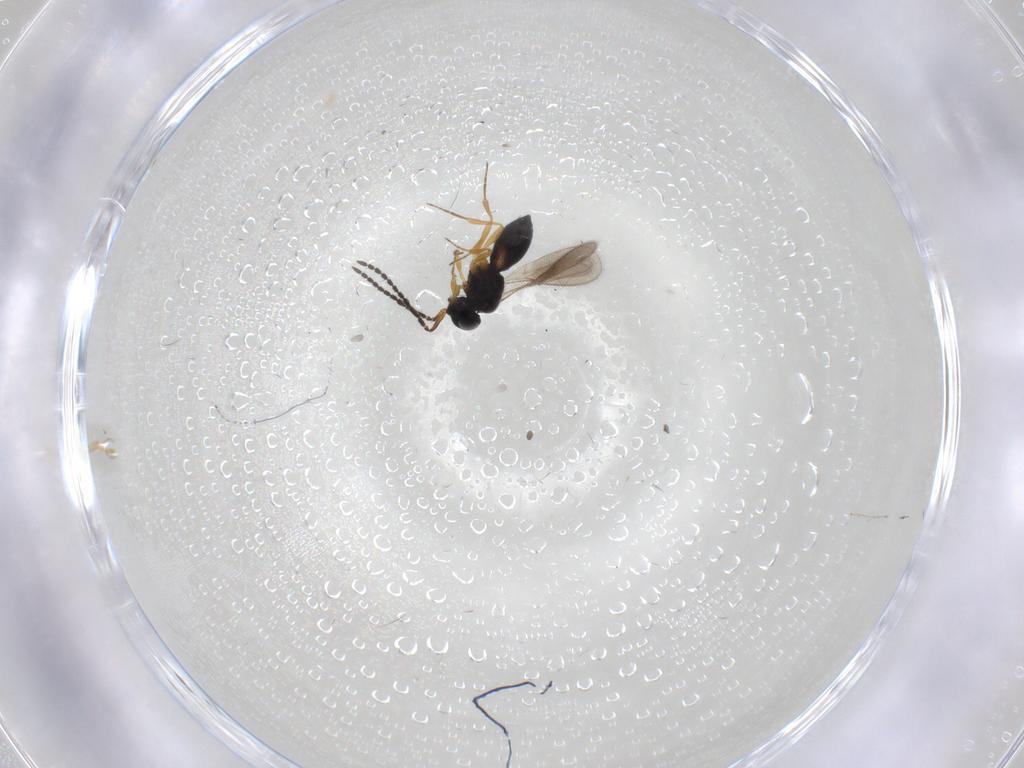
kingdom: Animalia
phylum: Arthropoda
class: Insecta
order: Hymenoptera
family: Scelionidae
